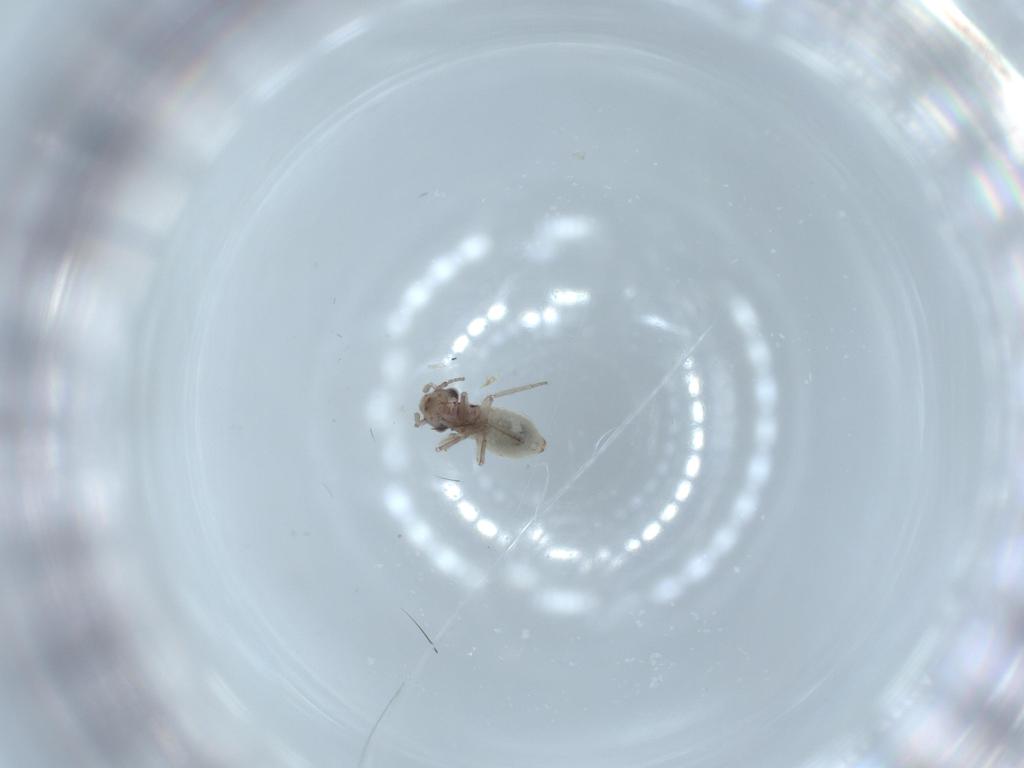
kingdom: Animalia
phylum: Arthropoda
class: Insecta
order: Psocodea
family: Lepidopsocidae
